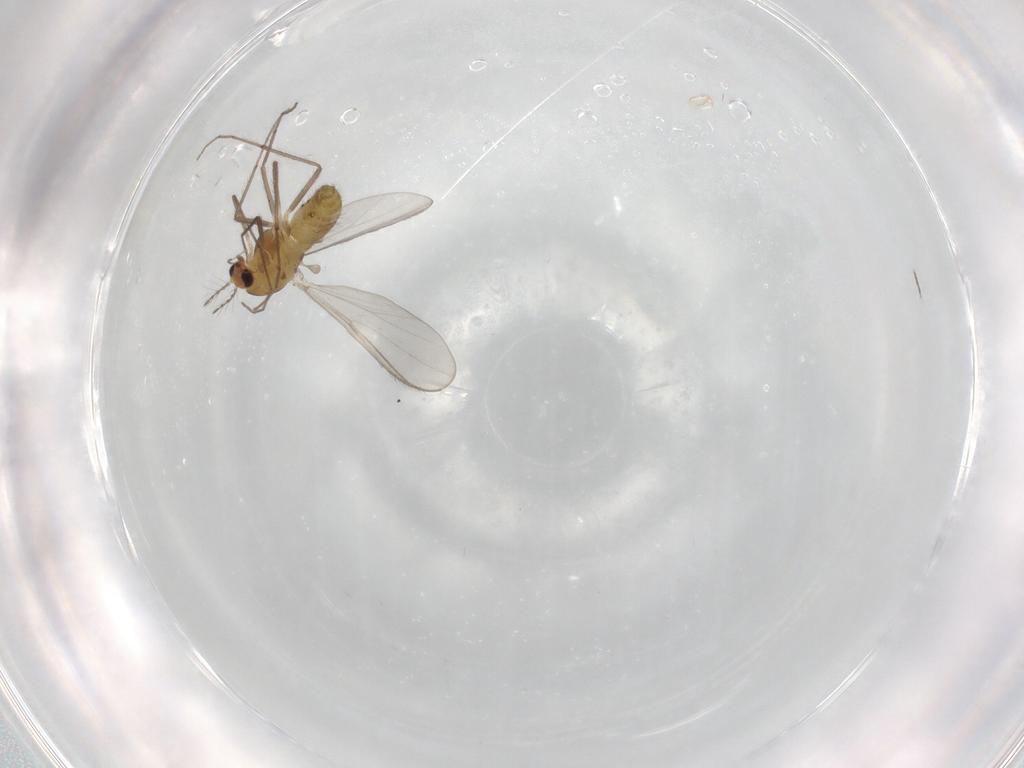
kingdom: Animalia
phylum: Arthropoda
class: Insecta
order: Diptera
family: Chironomidae
